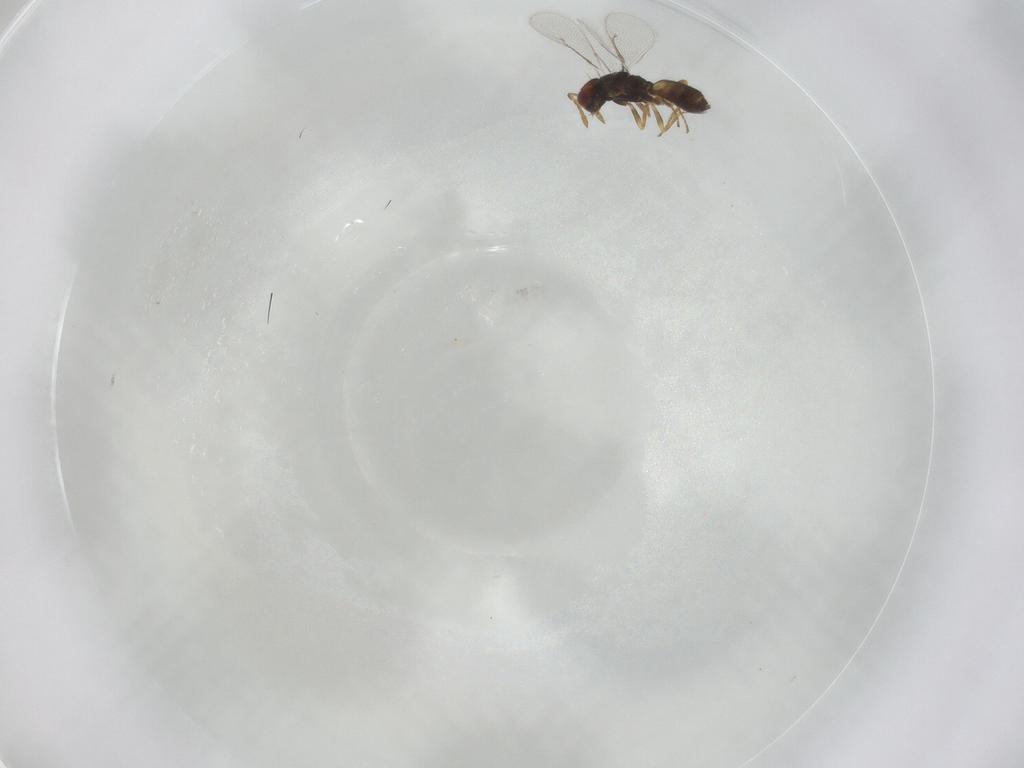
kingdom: Animalia
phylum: Arthropoda
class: Insecta
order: Hymenoptera
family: Eulophidae
